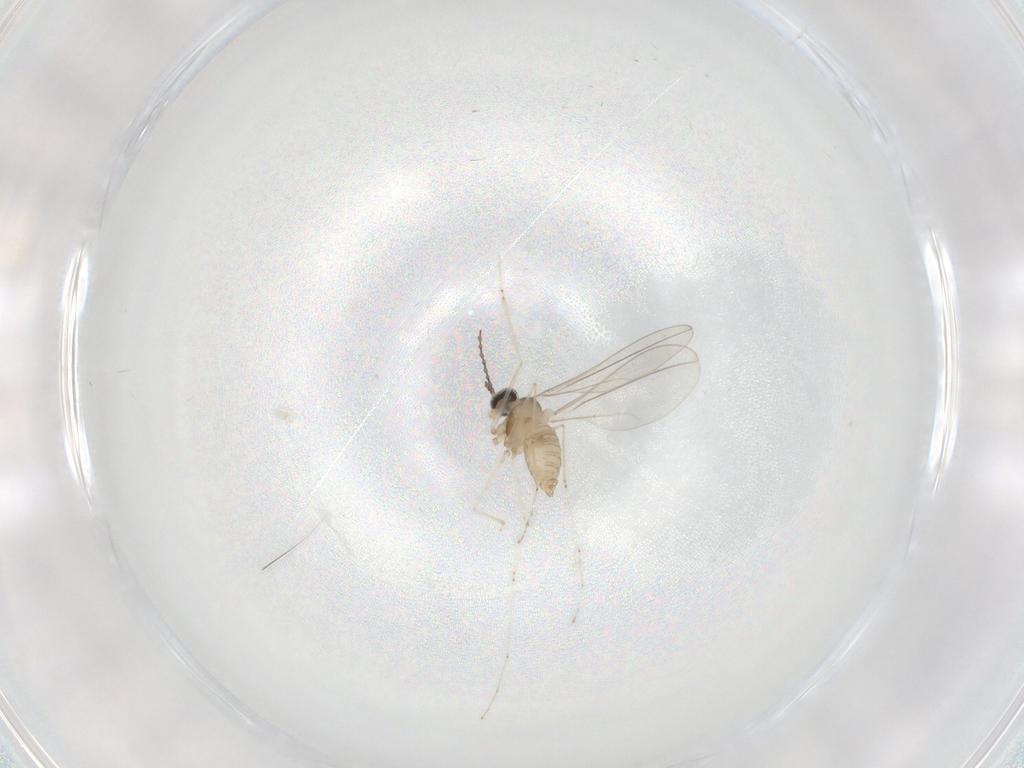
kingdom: Animalia
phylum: Arthropoda
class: Insecta
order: Diptera
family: Cecidomyiidae
